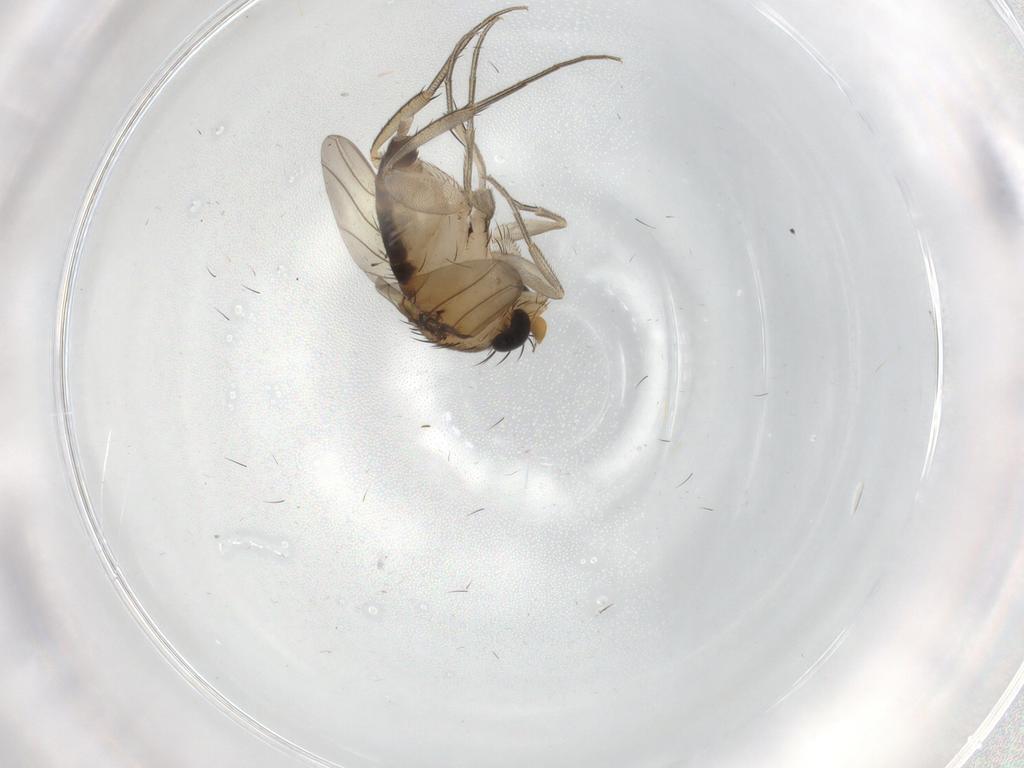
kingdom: Animalia
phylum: Arthropoda
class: Insecta
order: Diptera
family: Phoridae
